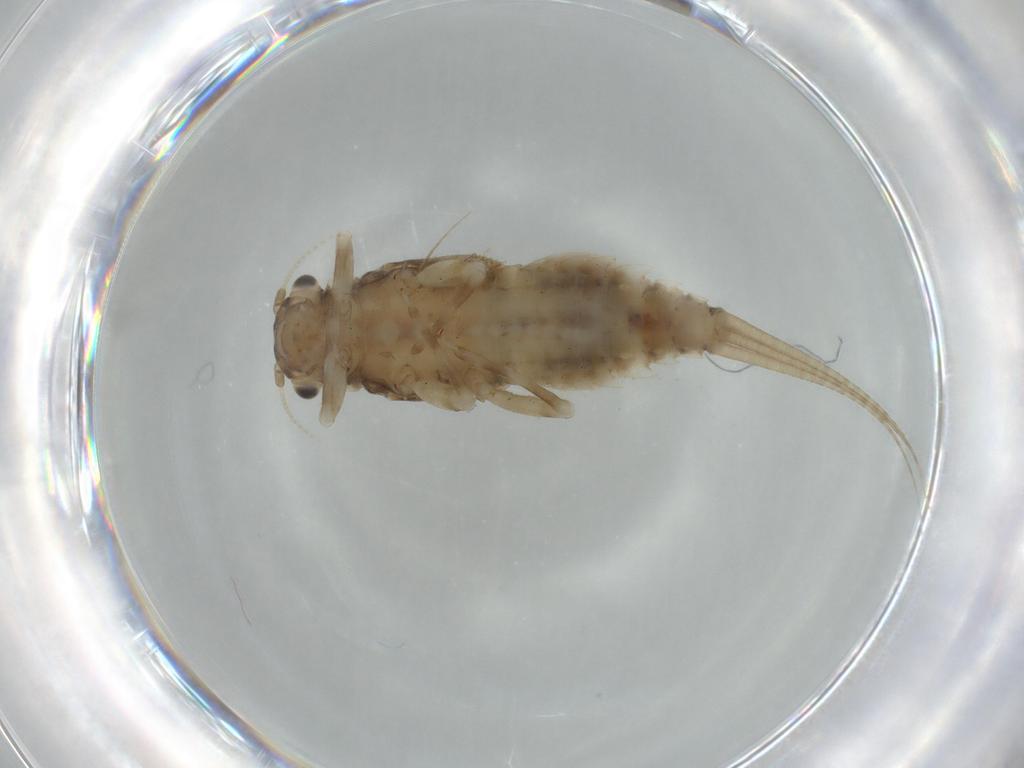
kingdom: Animalia
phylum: Arthropoda
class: Insecta
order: Ephemeroptera
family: Caenidae
